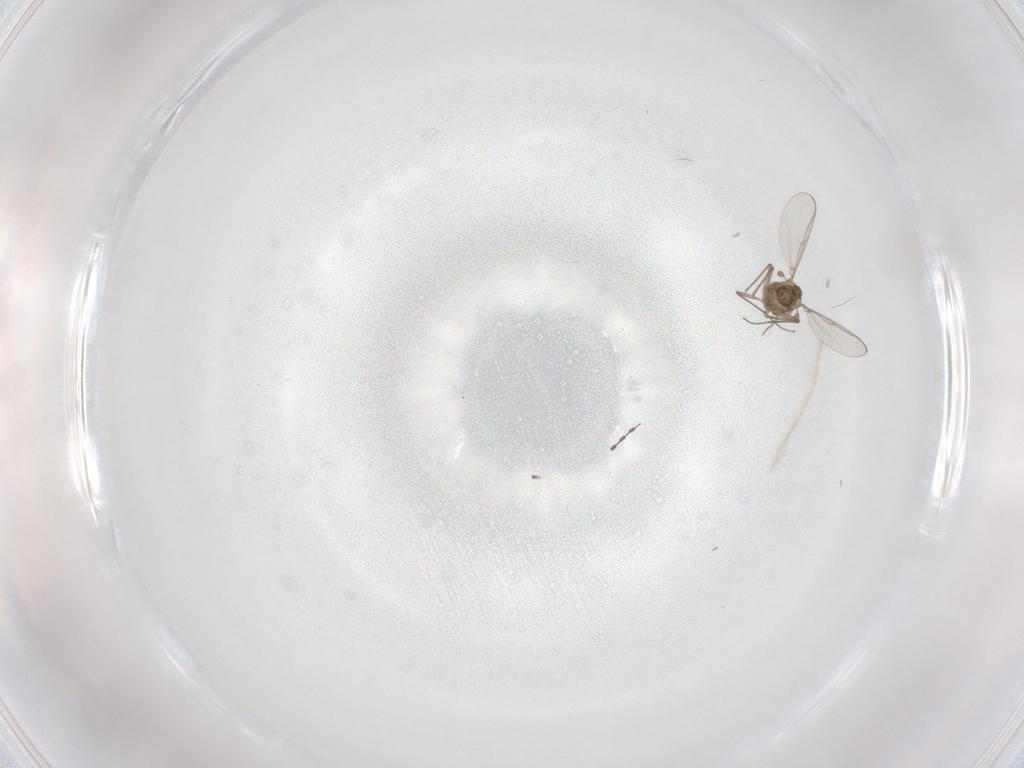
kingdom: Animalia
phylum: Arthropoda
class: Insecta
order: Diptera
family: Cecidomyiidae
